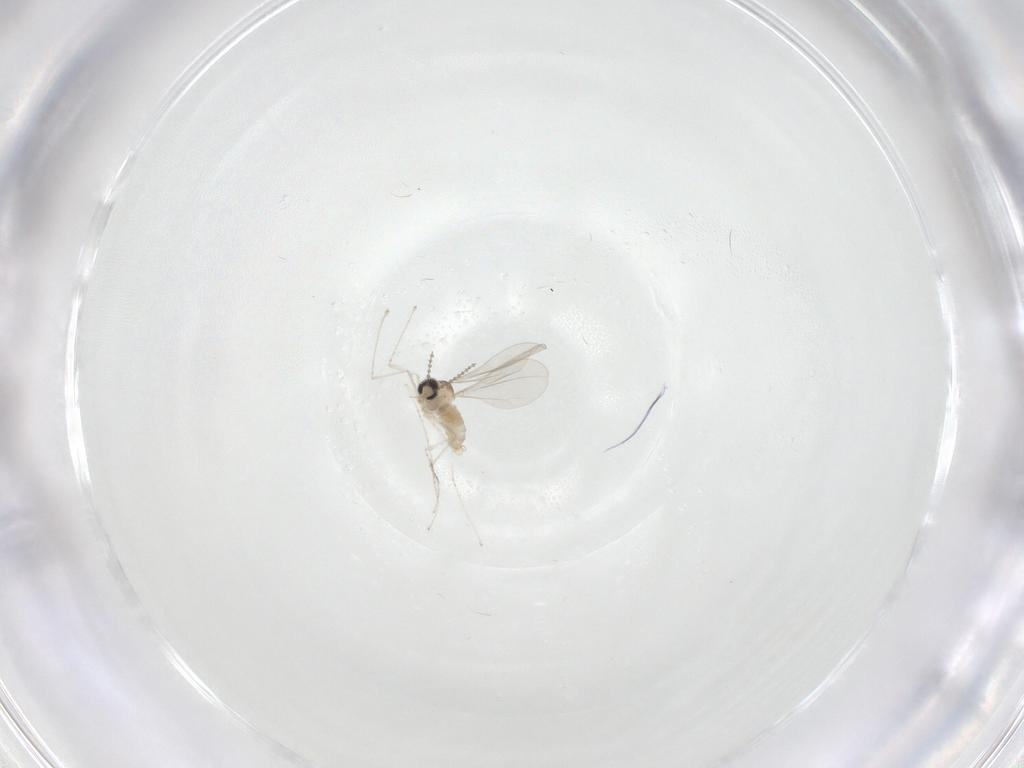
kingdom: Animalia
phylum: Arthropoda
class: Insecta
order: Diptera
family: Cecidomyiidae
